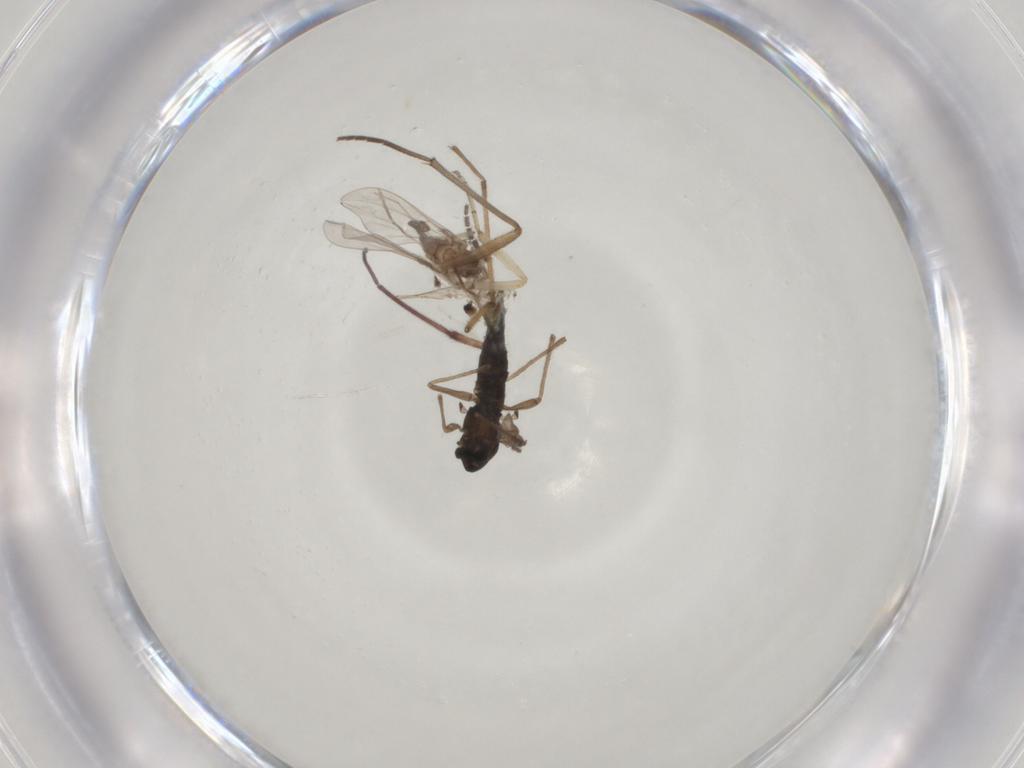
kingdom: Animalia
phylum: Arthropoda
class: Insecta
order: Diptera
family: Chironomidae
